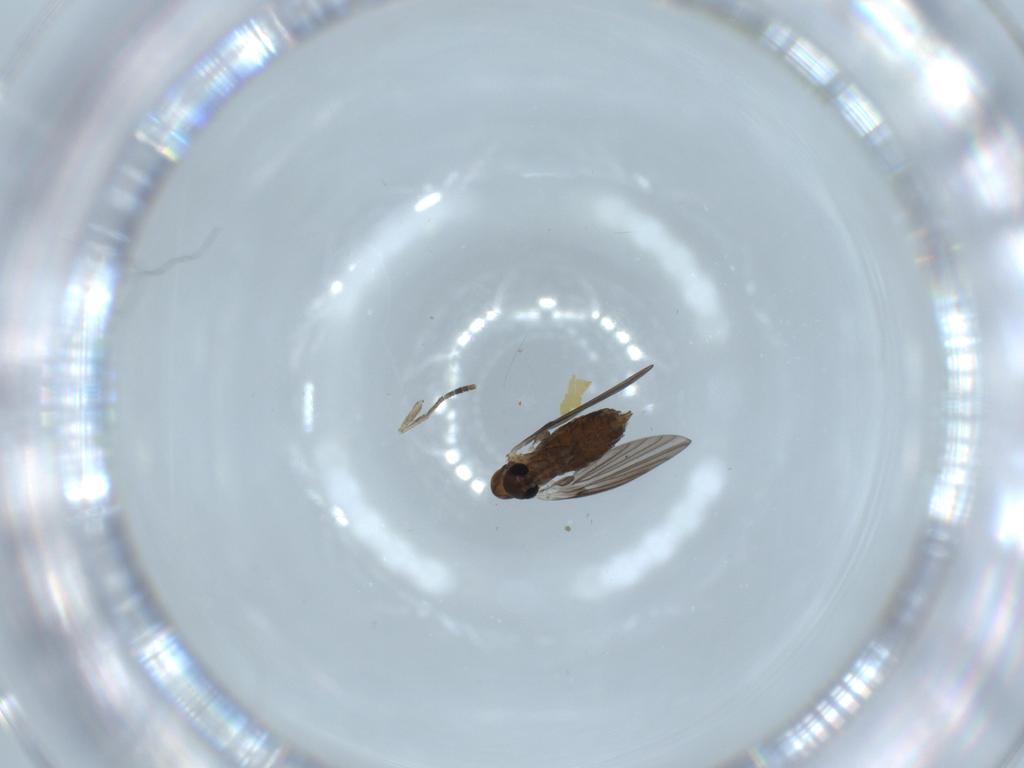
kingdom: Animalia
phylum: Arthropoda
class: Insecta
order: Diptera
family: Psychodidae
